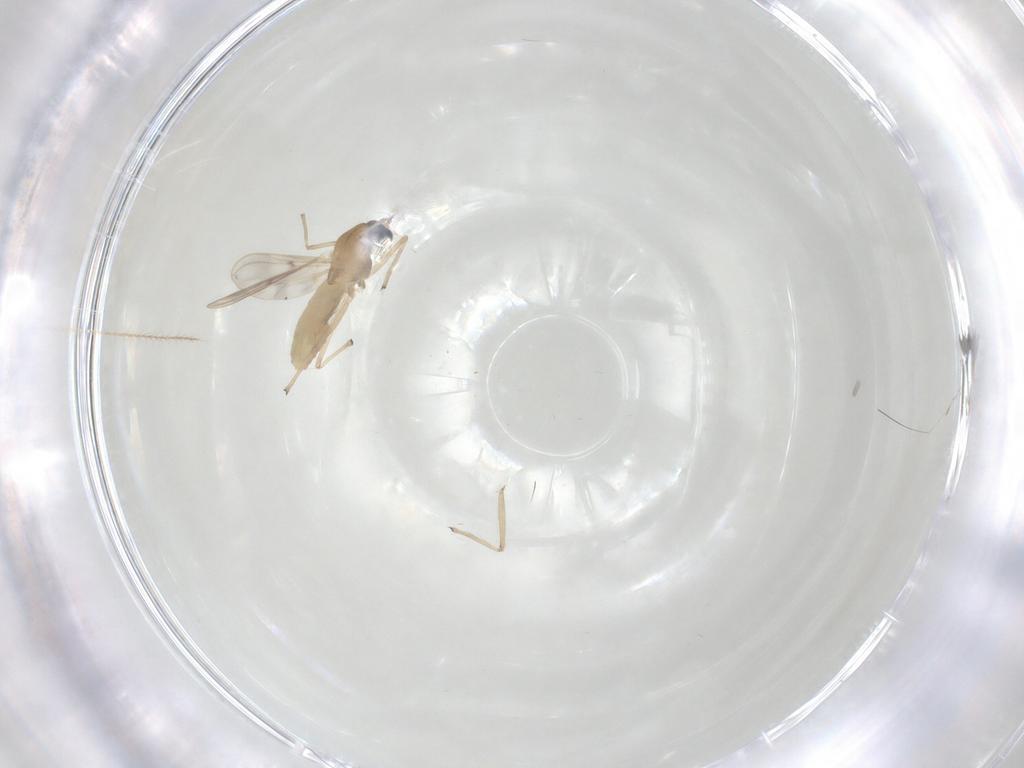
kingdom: Animalia
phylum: Arthropoda
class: Insecta
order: Diptera
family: Chironomidae
